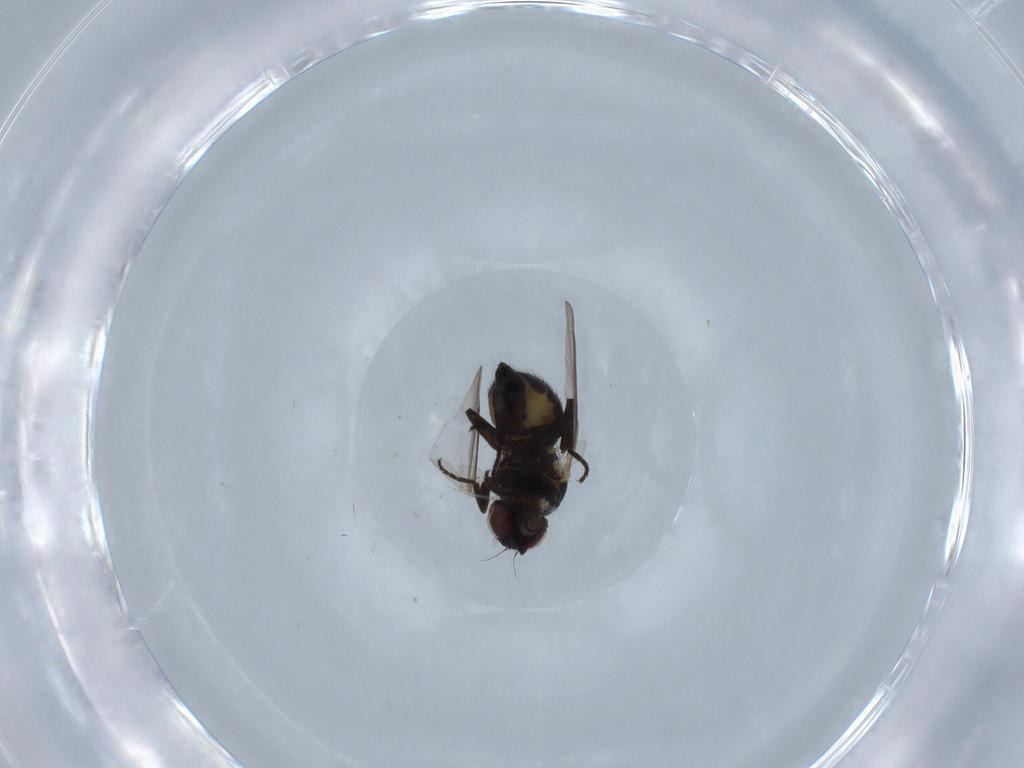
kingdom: Animalia
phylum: Arthropoda
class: Insecta
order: Diptera
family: Ceratopogonidae
